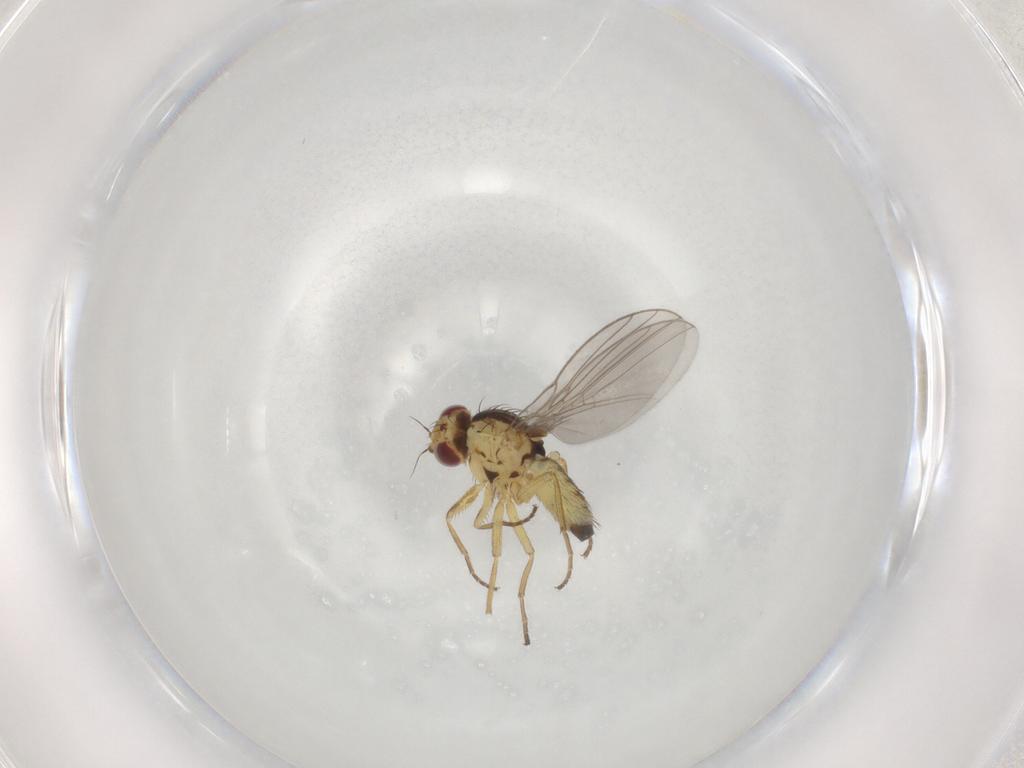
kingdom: Animalia
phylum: Arthropoda
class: Insecta
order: Diptera
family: Agromyzidae
